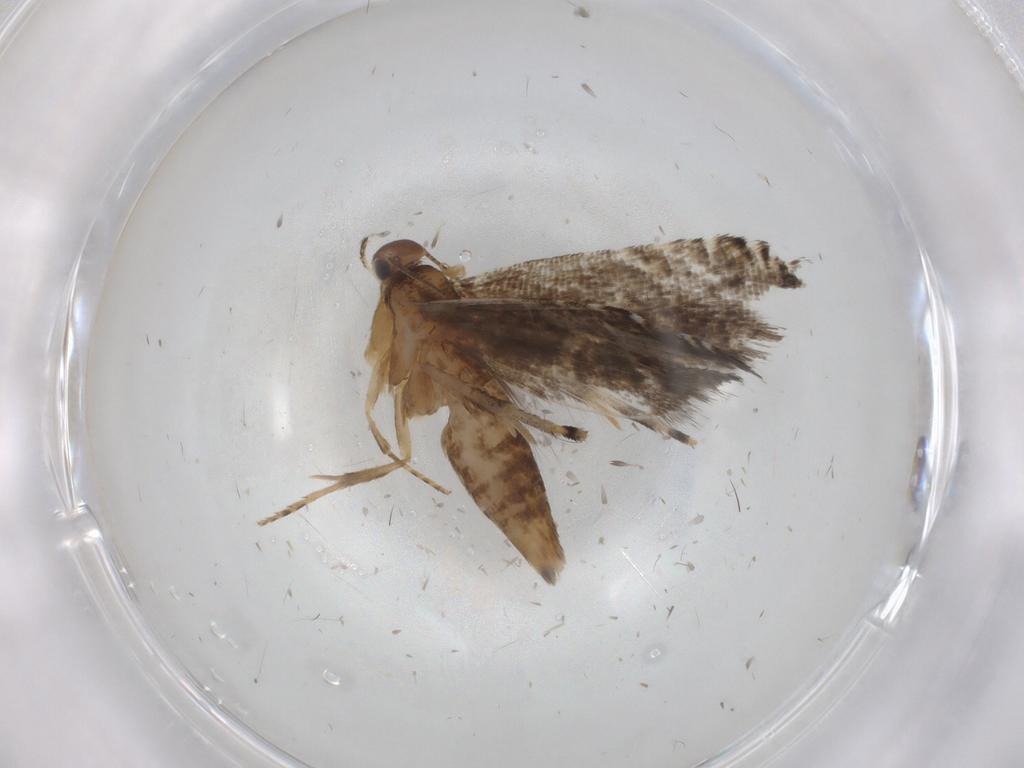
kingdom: Animalia
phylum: Arthropoda
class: Insecta
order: Lepidoptera
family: Glyphipterigidae
